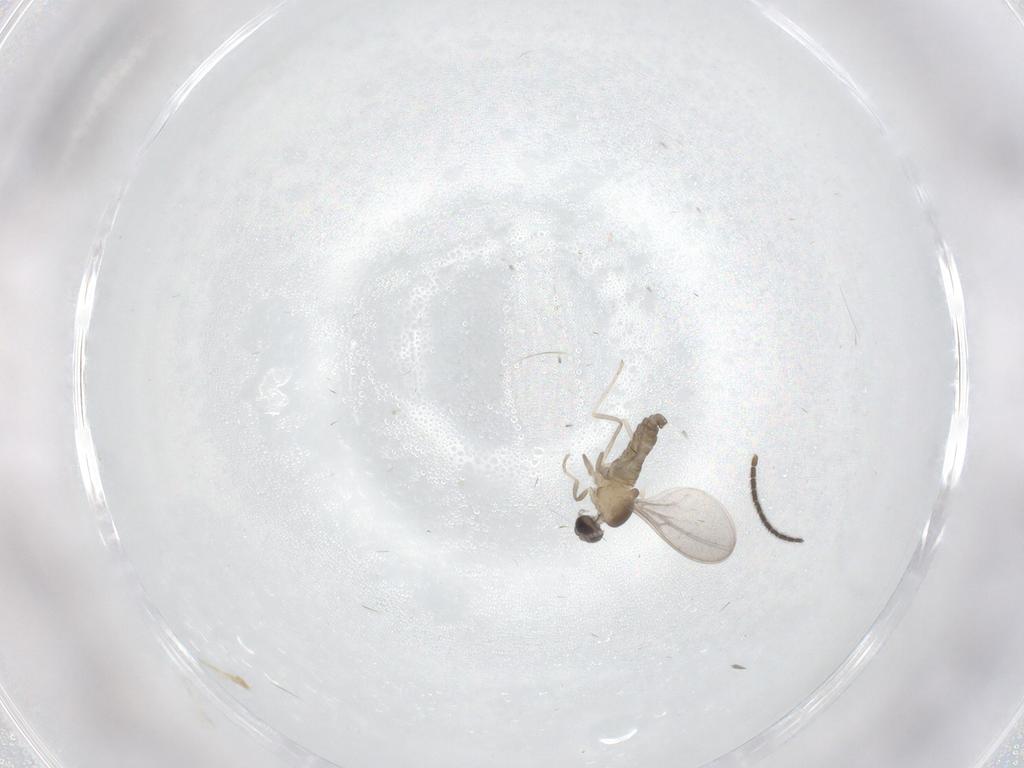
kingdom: Animalia
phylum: Arthropoda
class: Insecta
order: Diptera
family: Cecidomyiidae
